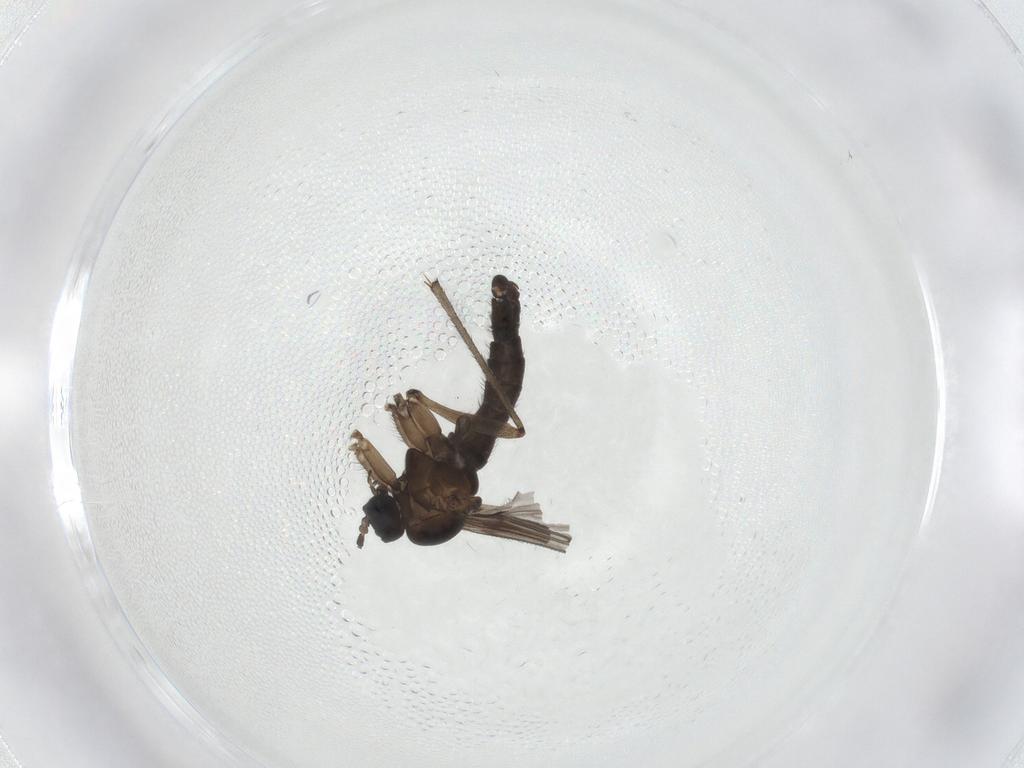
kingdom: Animalia
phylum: Arthropoda
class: Insecta
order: Diptera
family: Sciaridae
